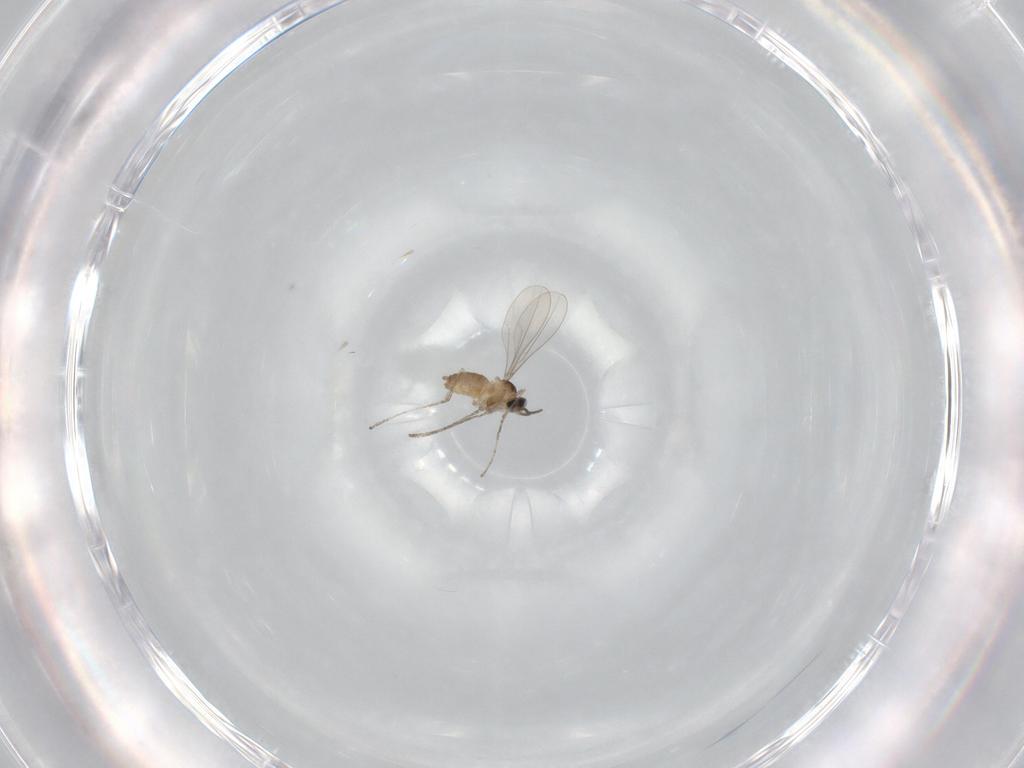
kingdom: Animalia
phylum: Arthropoda
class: Insecta
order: Diptera
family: Cecidomyiidae
